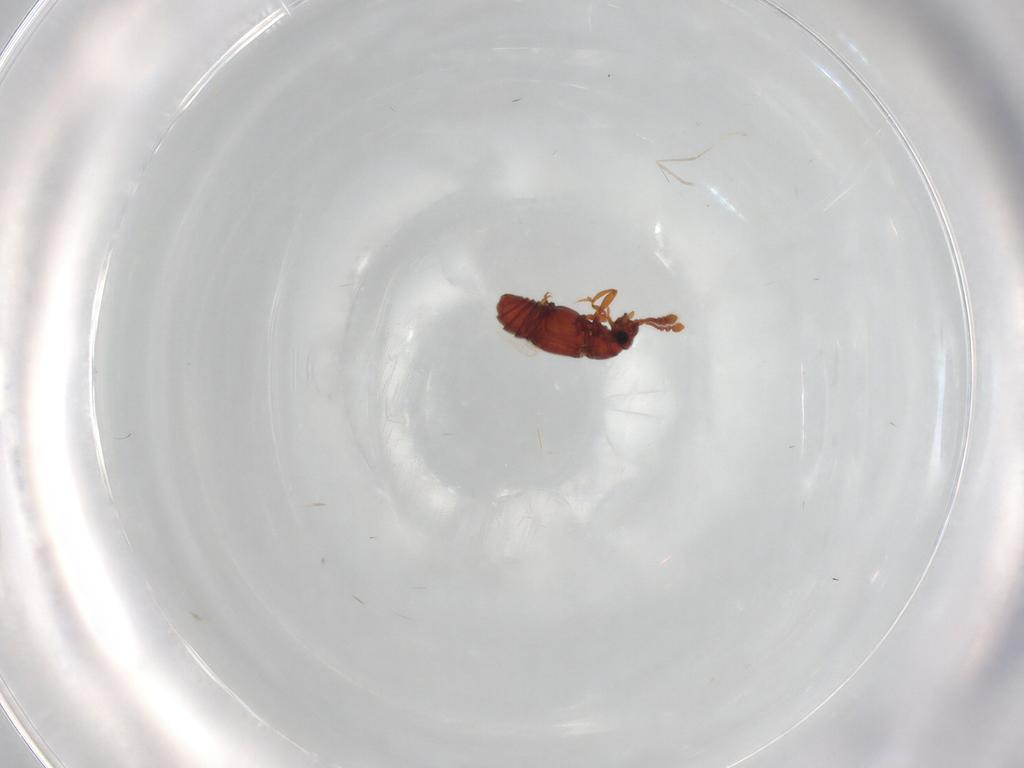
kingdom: Animalia
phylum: Arthropoda
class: Insecta
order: Coleoptera
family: Staphylinidae
